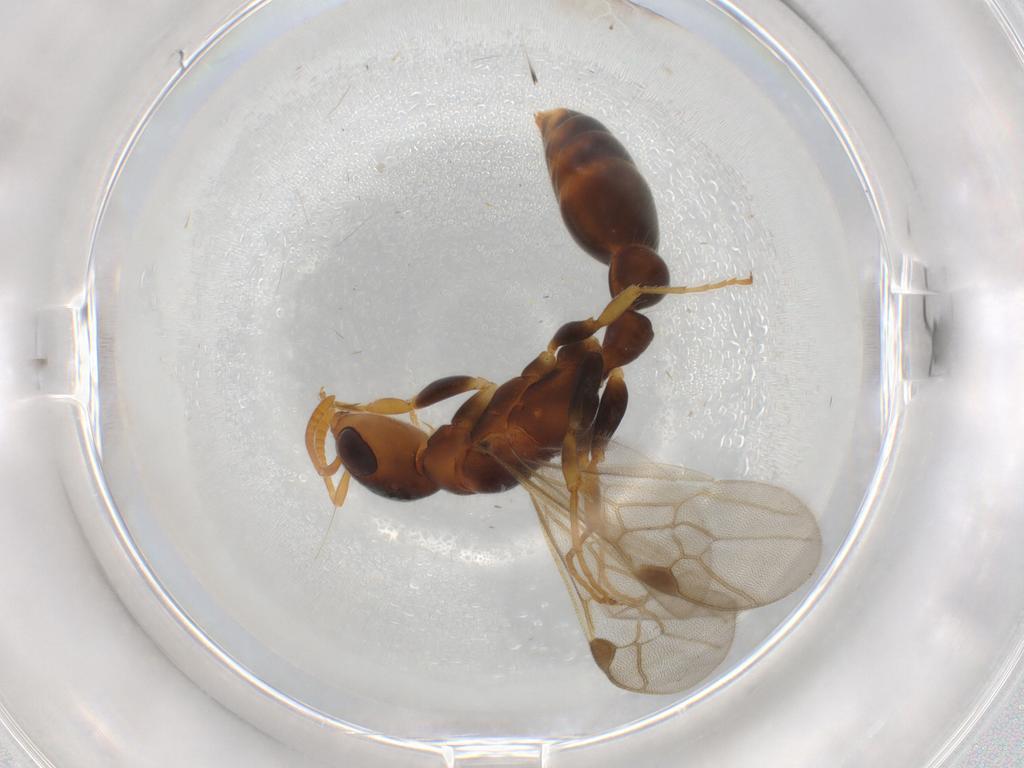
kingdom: Animalia
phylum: Arthropoda
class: Insecta
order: Hymenoptera
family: Formicidae
